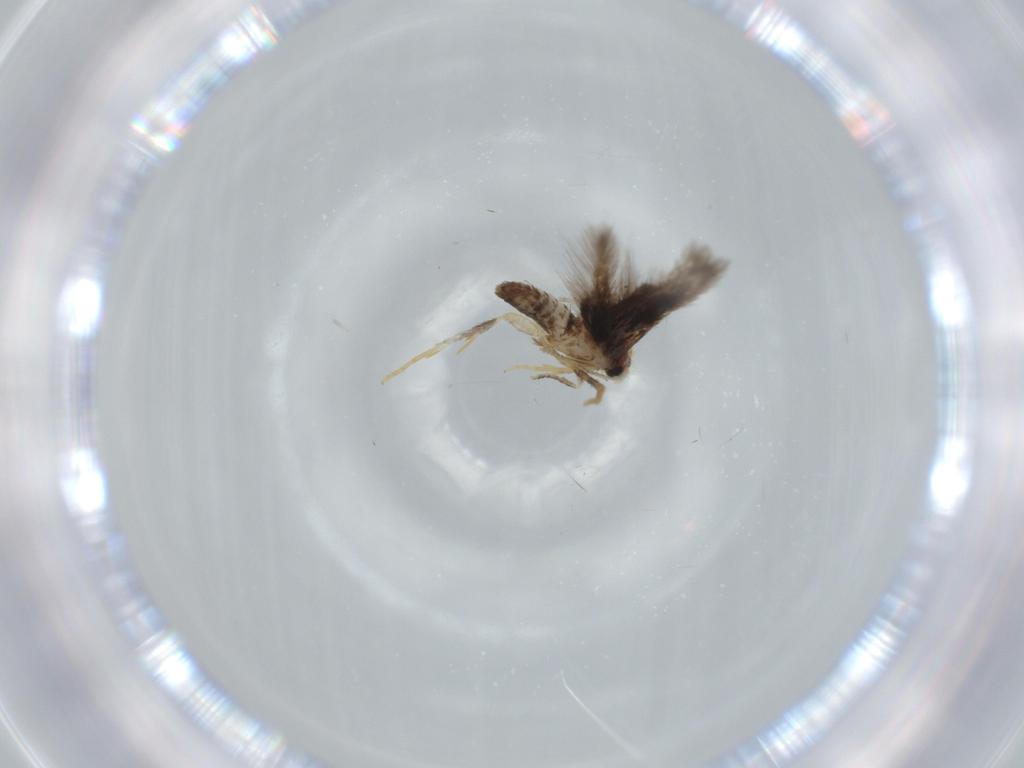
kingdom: Animalia
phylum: Arthropoda
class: Insecta
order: Lepidoptera
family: Nepticulidae
